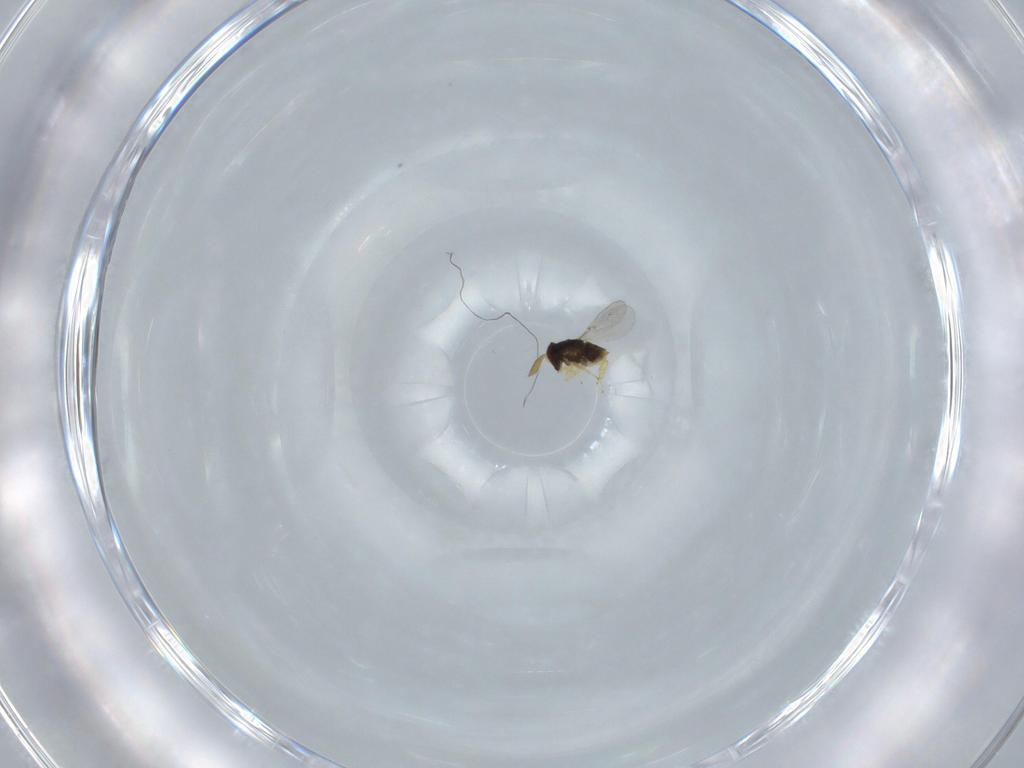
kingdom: Animalia
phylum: Arthropoda
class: Insecta
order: Hymenoptera
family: Encyrtidae
